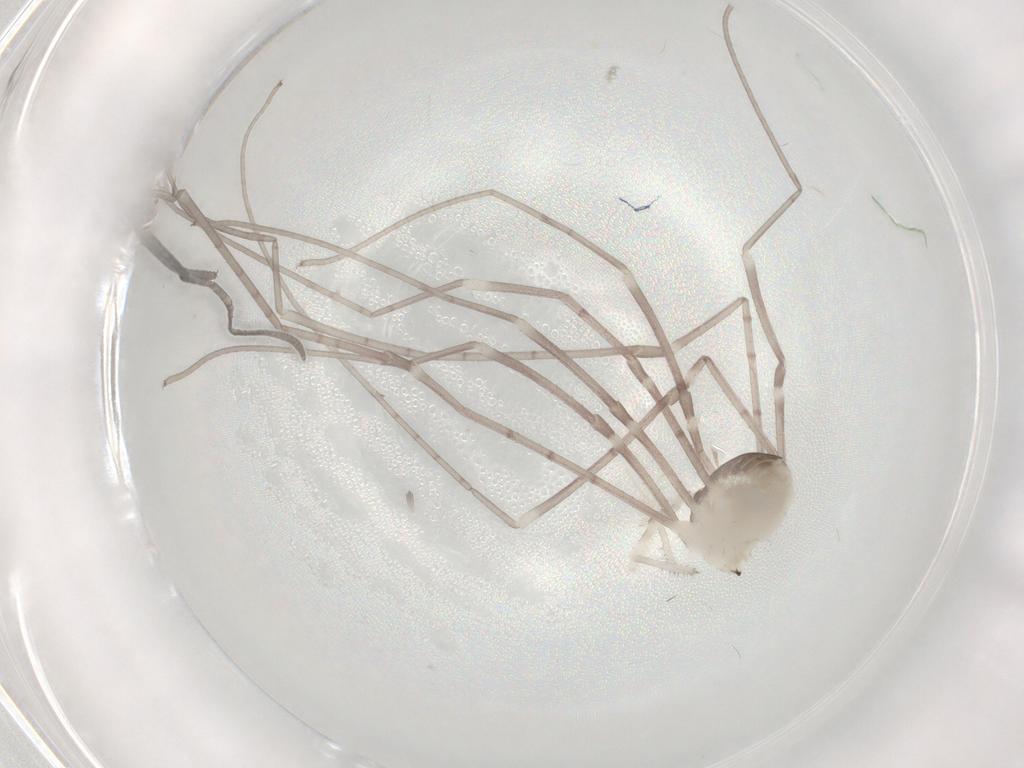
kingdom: Animalia
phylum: Arthropoda
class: Arachnida
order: Opiliones
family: Sclerosomatidae
